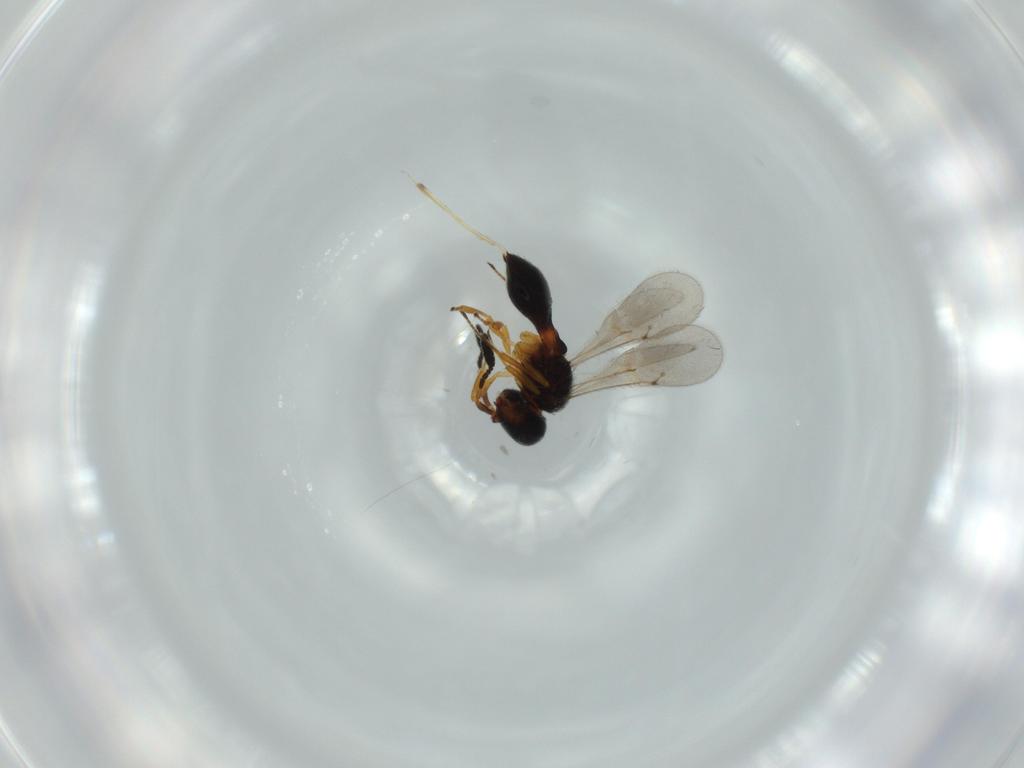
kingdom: Animalia
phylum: Arthropoda
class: Insecta
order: Hymenoptera
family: Scelionidae
